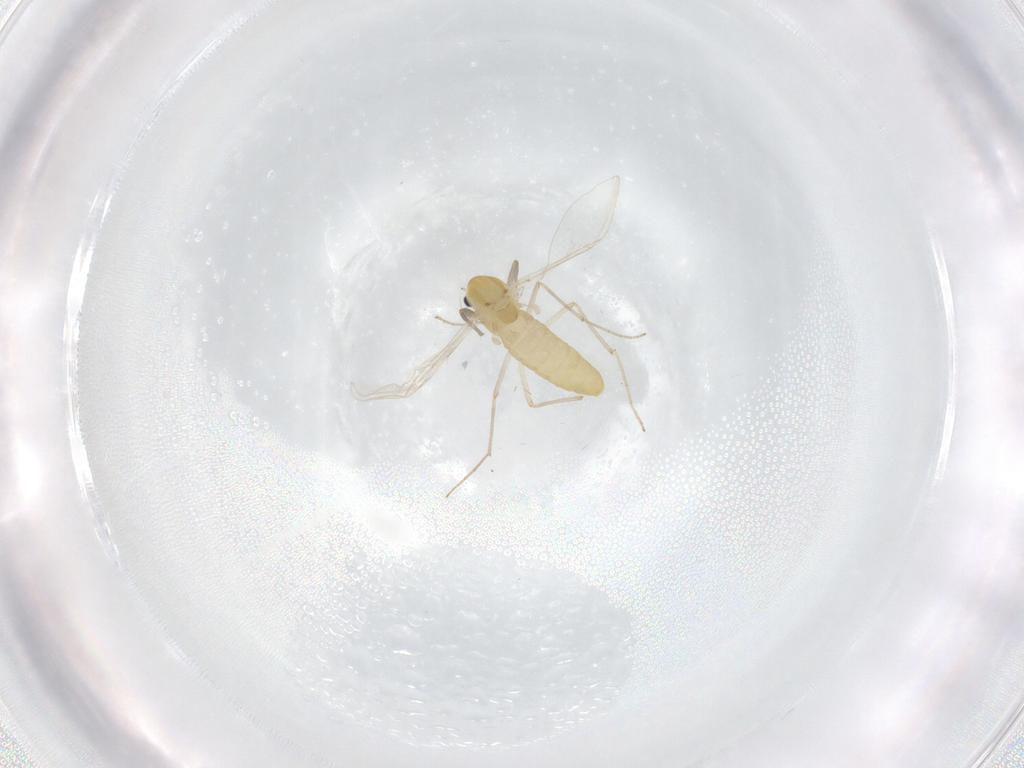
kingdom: Animalia
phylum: Arthropoda
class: Insecta
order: Diptera
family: Chironomidae
